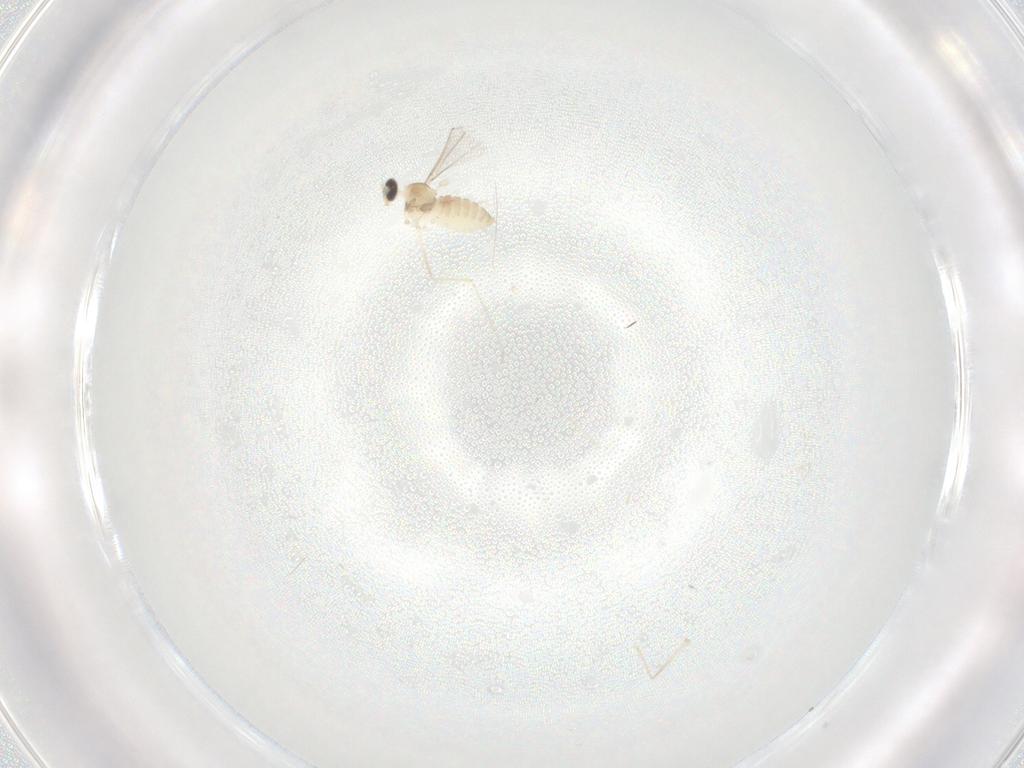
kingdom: Animalia
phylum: Arthropoda
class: Insecta
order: Diptera
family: Cecidomyiidae
